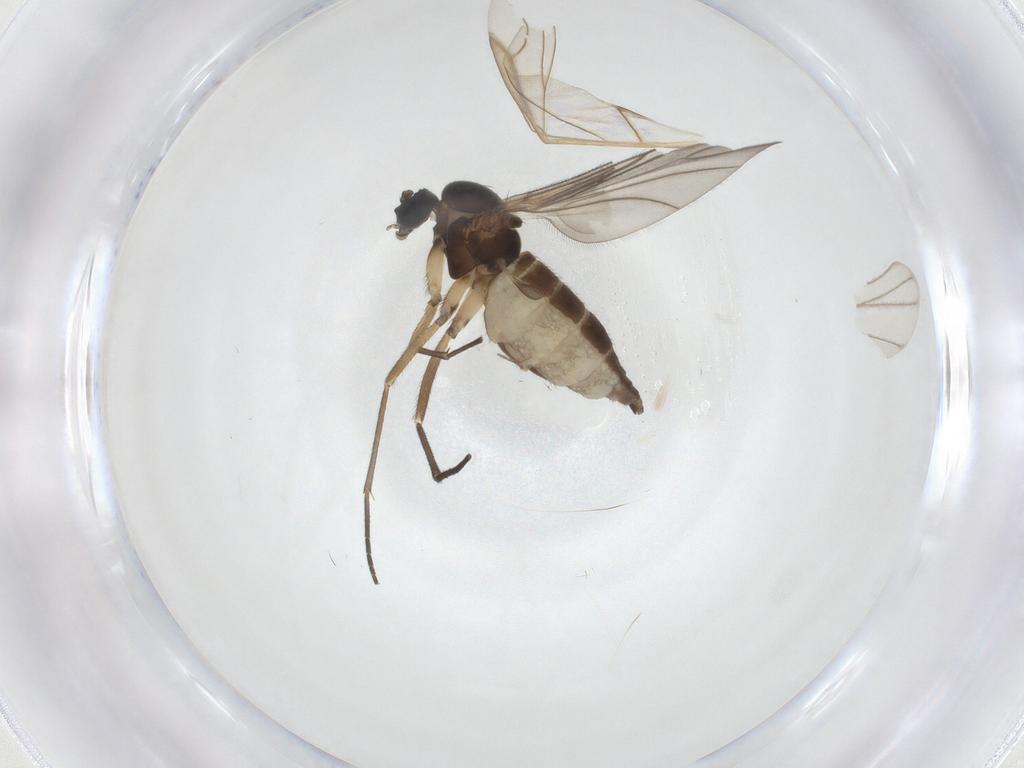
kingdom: Animalia
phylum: Arthropoda
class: Insecta
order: Diptera
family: Sciaridae
